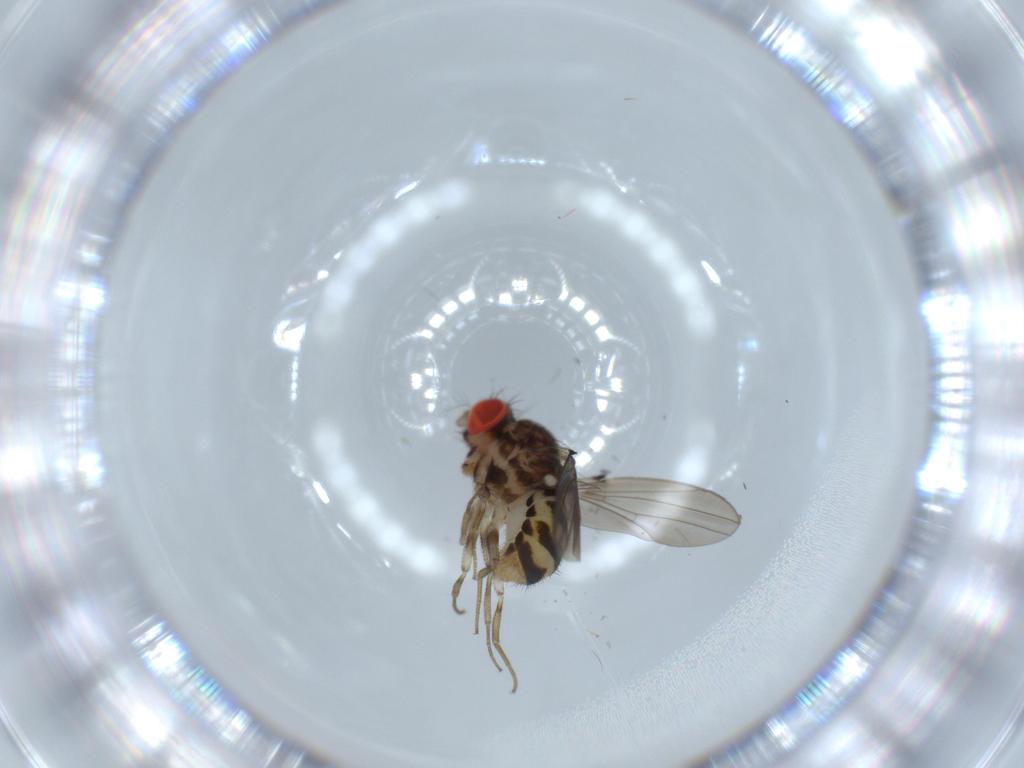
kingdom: Animalia
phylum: Arthropoda
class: Insecta
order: Diptera
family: Drosophilidae
